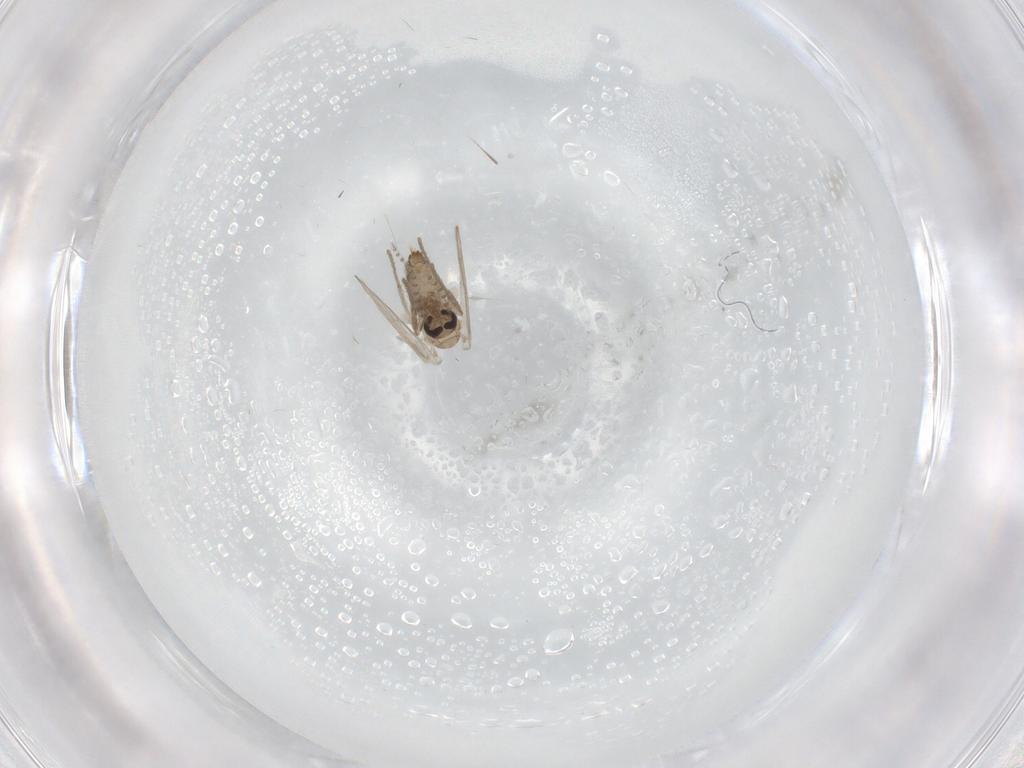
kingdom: Animalia
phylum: Arthropoda
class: Insecta
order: Diptera
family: Psychodidae
